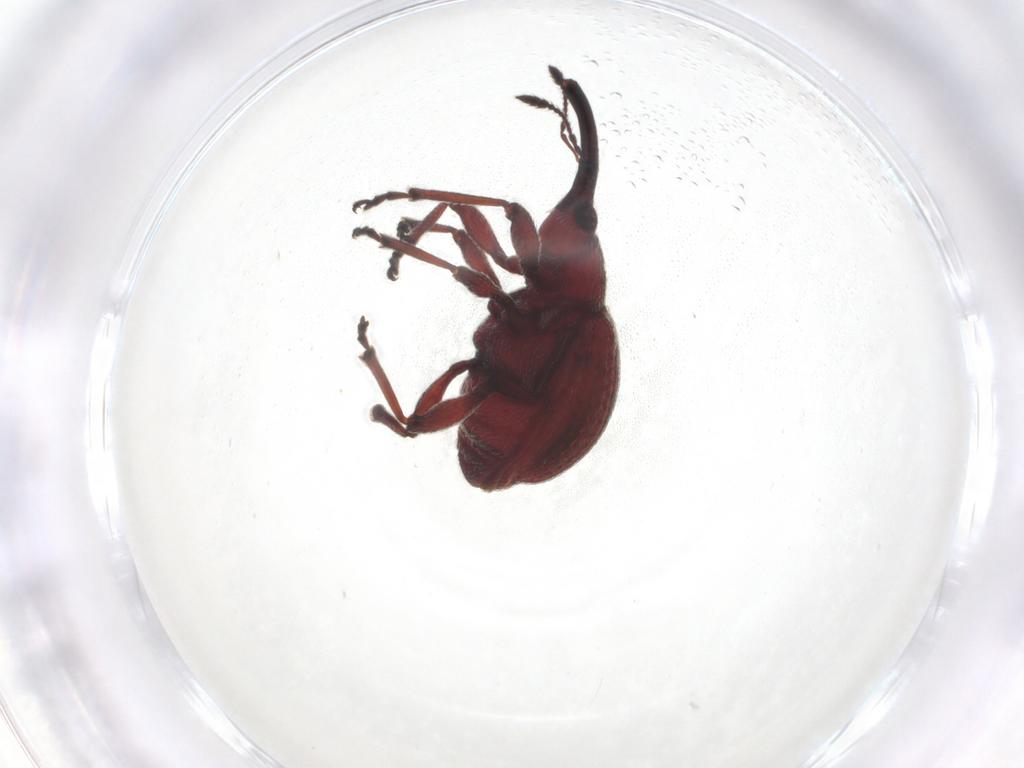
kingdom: Animalia
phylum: Arthropoda
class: Insecta
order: Coleoptera
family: Brentidae
